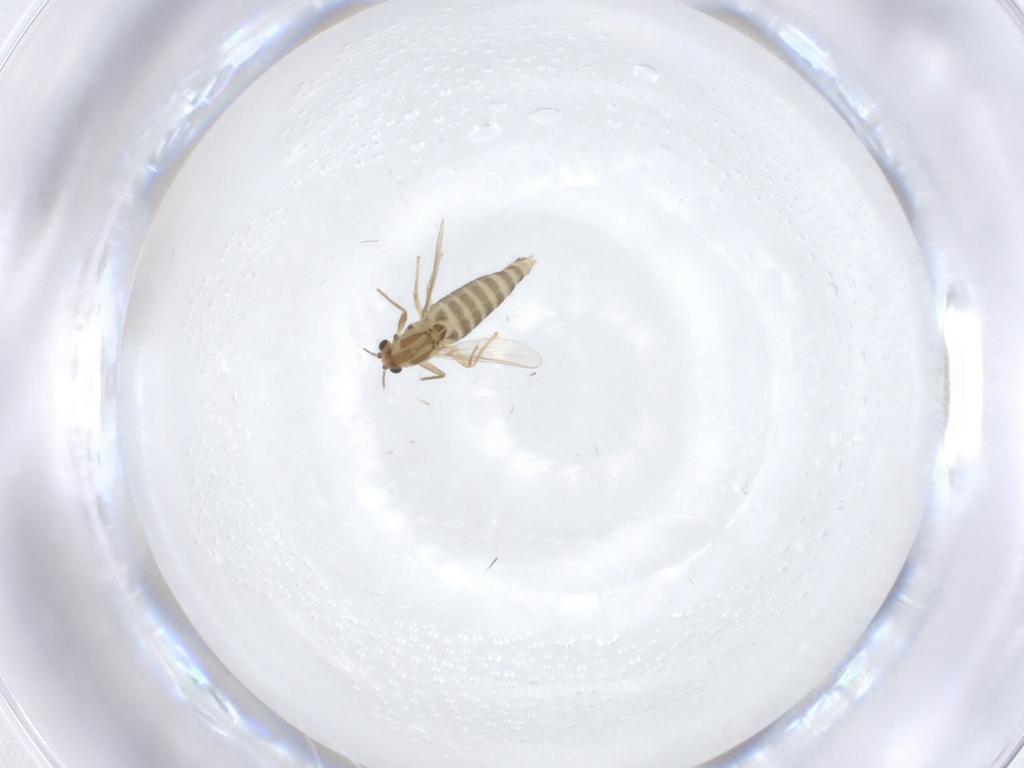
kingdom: Animalia
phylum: Arthropoda
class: Insecta
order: Diptera
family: Chironomidae
